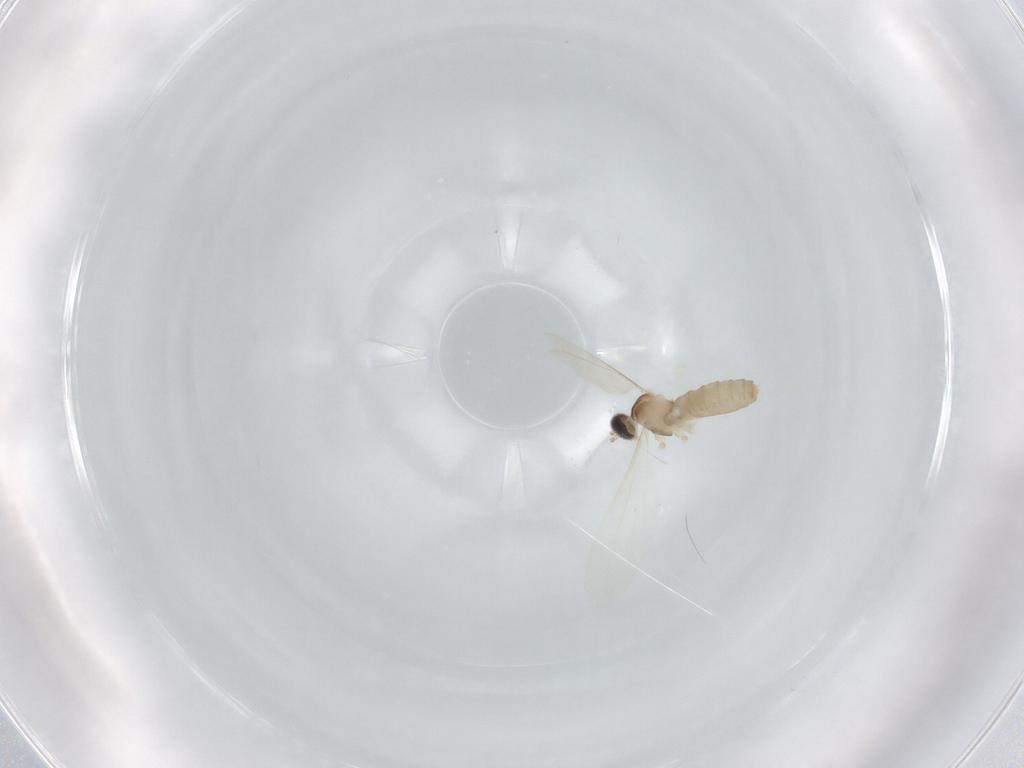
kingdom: Animalia
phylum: Arthropoda
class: Insecta
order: Diptera
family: Cecidomyiidae
